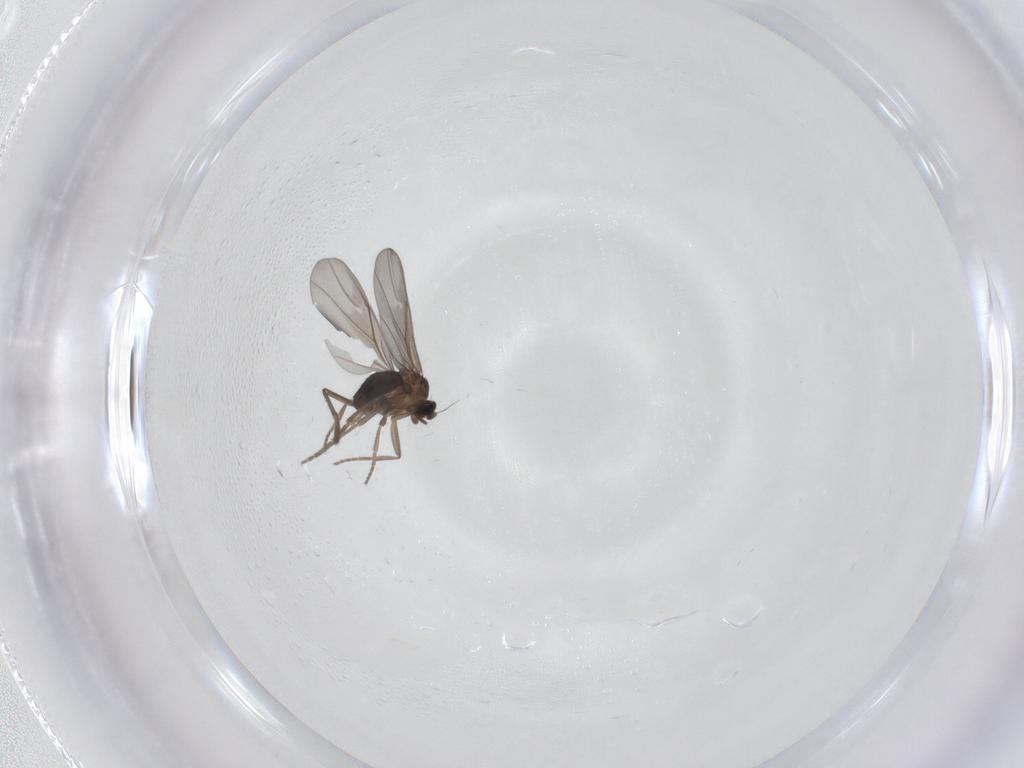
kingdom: Animalia
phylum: Arthropoda
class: Insecta
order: Diptera
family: Phoridae
